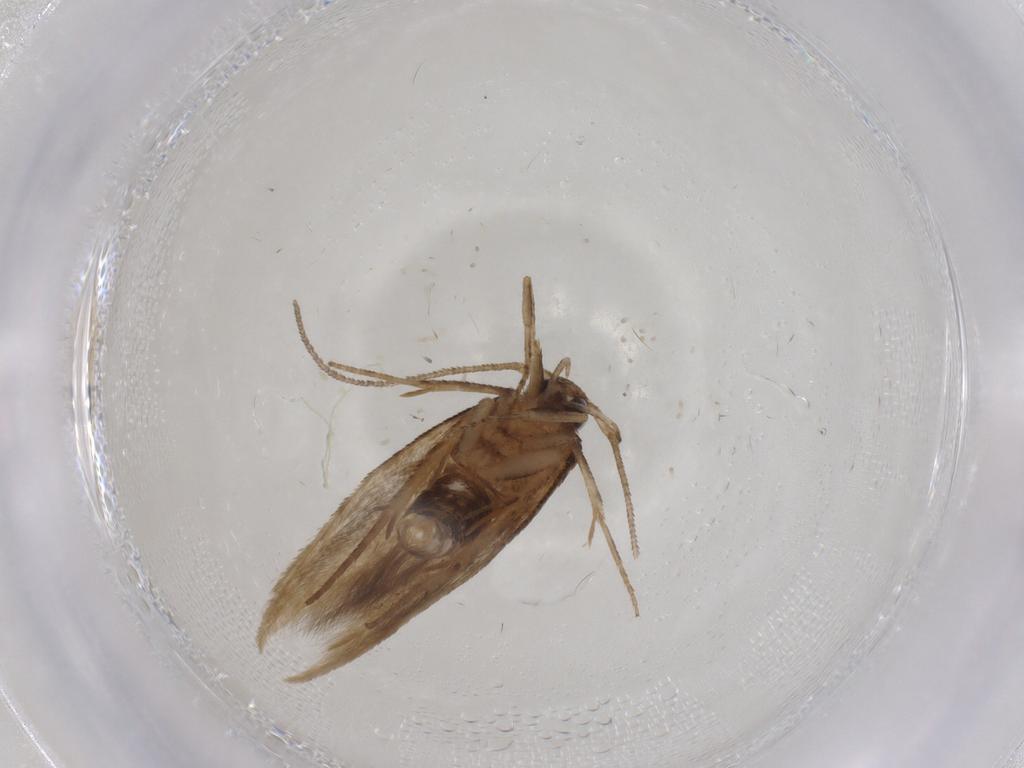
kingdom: Animalia
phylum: Arthropoda
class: Insecta
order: Lepidoptera
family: Cosmopterigidae
